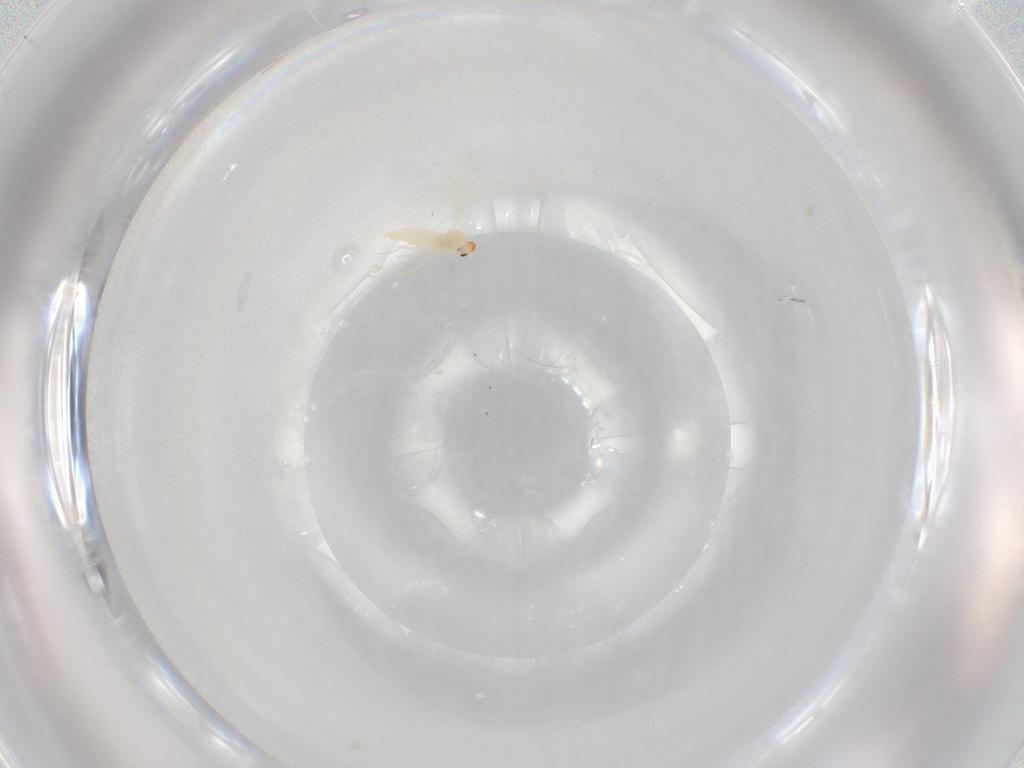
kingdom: Animalia
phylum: Arthropoda
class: Insecta
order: Diptera
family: Cecidomyiidae
